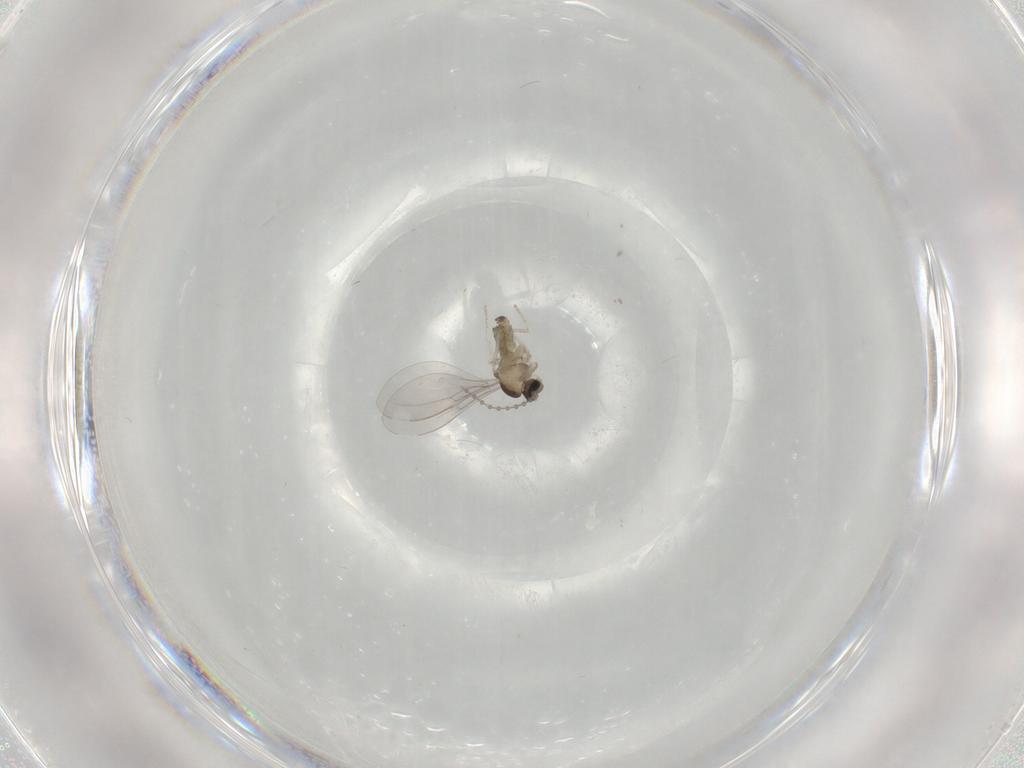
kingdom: Animalia
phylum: Arthropoda
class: Insecta
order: Diptera
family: Cecidomyiidae
